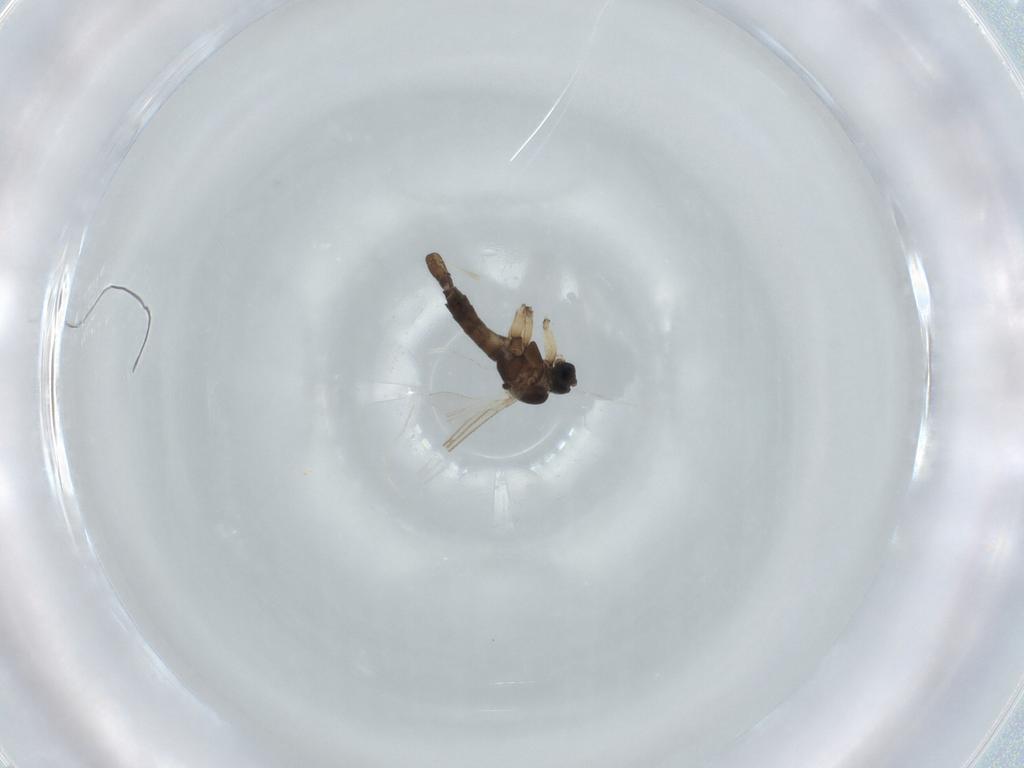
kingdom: Animalia
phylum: Arthropoda
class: Insecta
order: Diptera
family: Sciaridae
